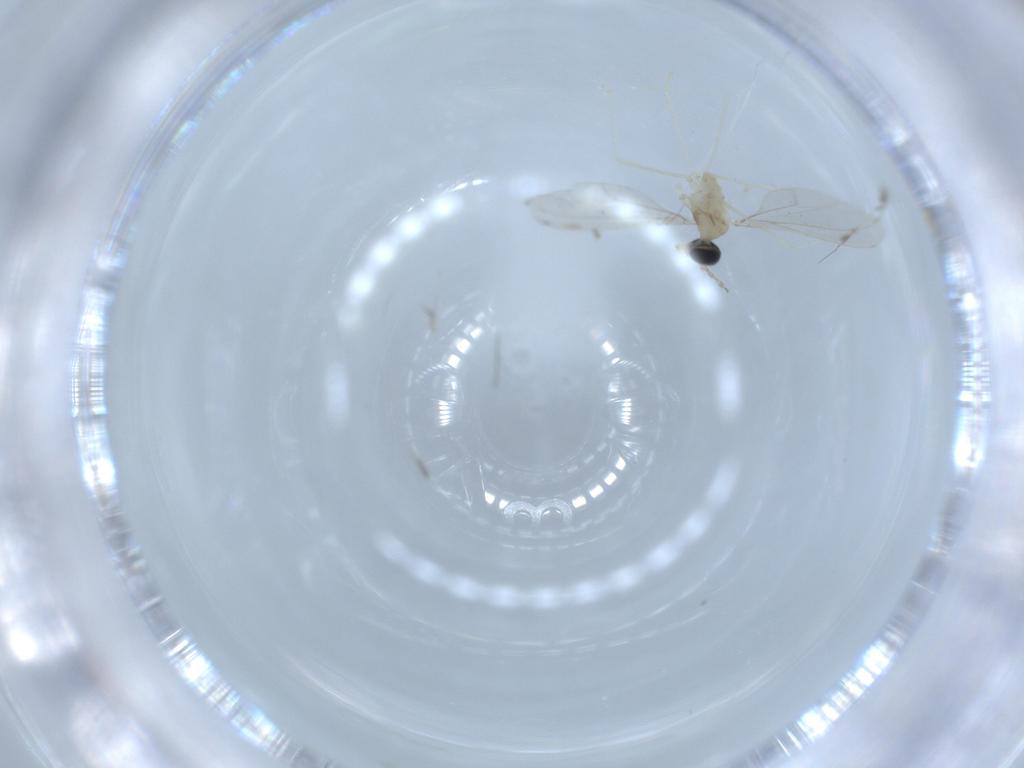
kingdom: Animalia
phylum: Arthropoda
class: Insecta
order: Diptera
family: Cecidomyiidae
